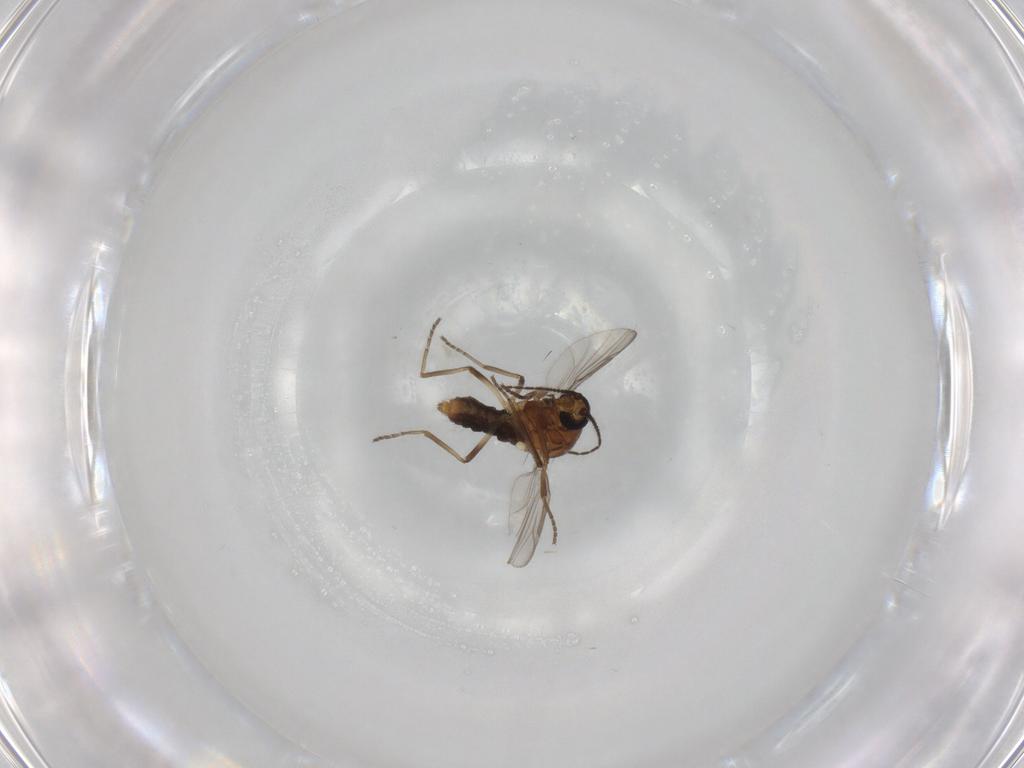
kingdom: Animalia
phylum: Arthropoda
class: Insecta
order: Diptera
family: Ceratopogonidae
